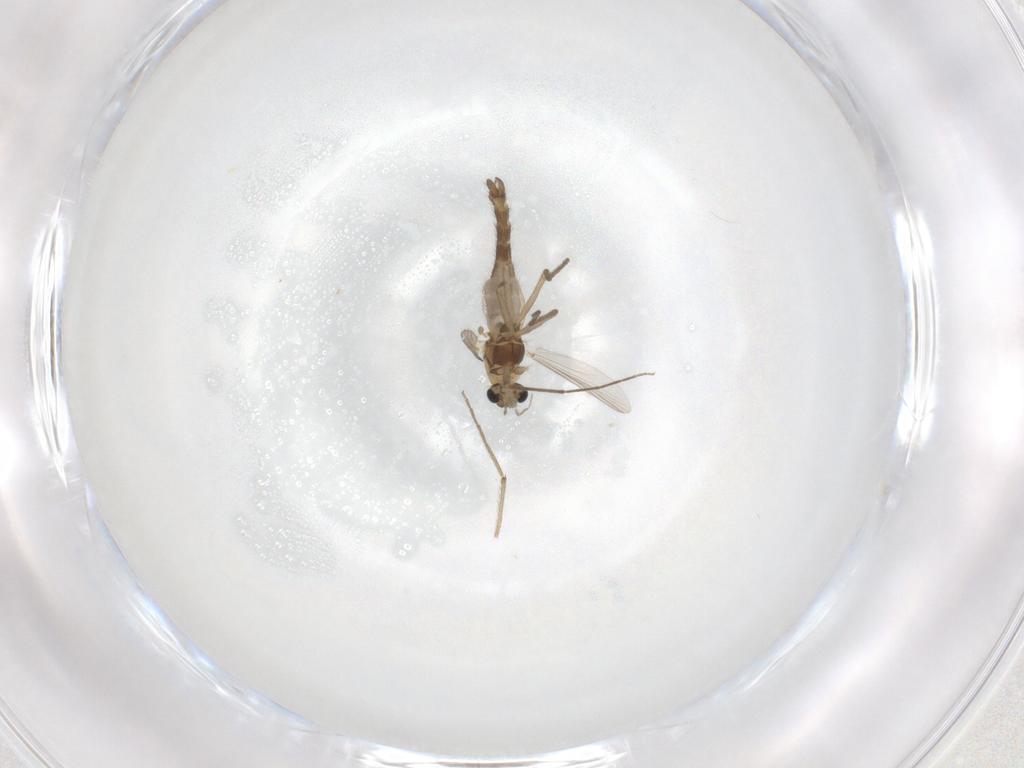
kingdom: Animalia
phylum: Arthropoda
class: Insecta
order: Diptera
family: Chironomidae
